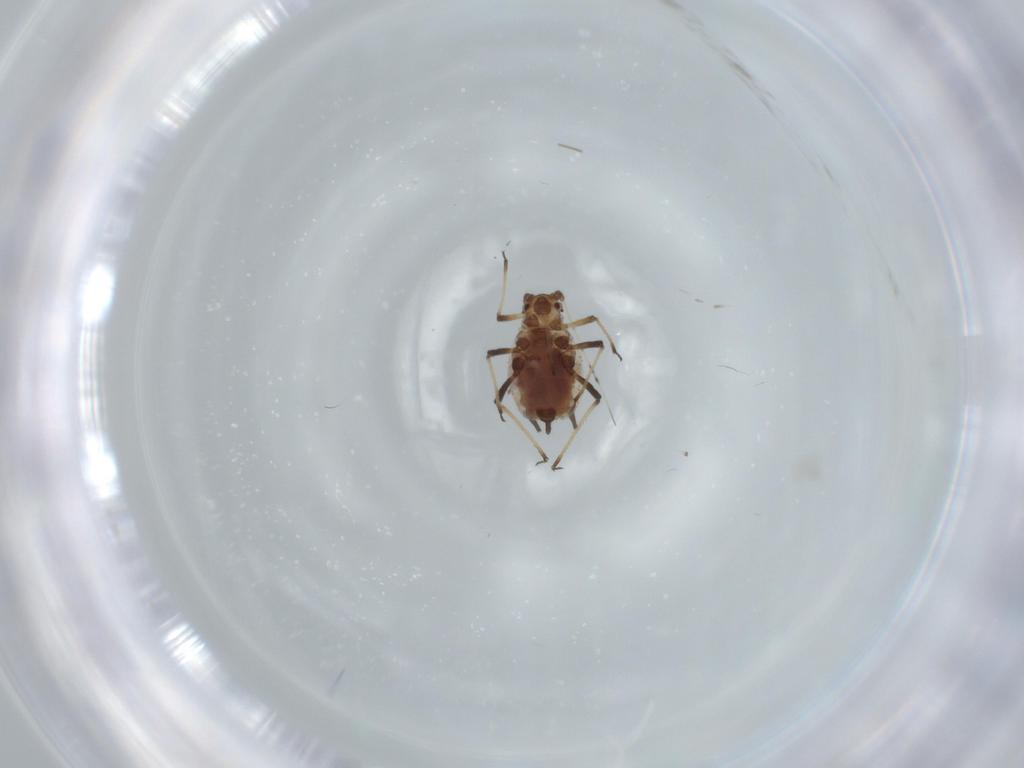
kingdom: Animalia
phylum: Arthropoda
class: Insecta
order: Hemiptera
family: Aphididae
